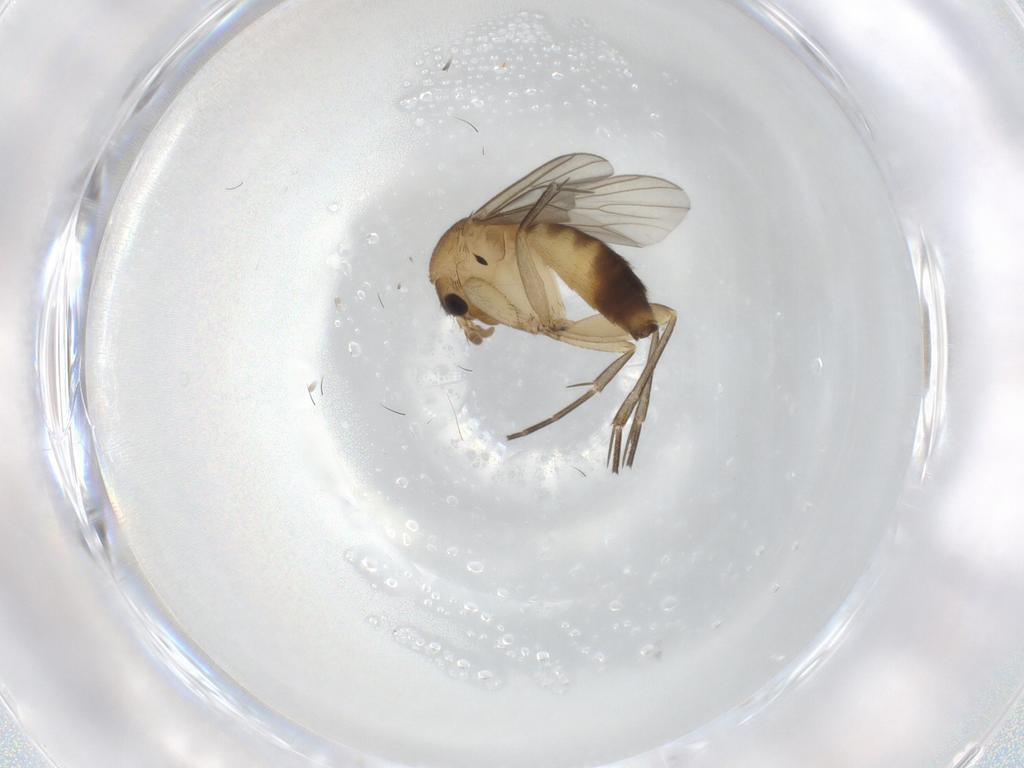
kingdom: Animalia
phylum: Arthropoda
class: Insecta
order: Diptera
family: Mycetophilidae
